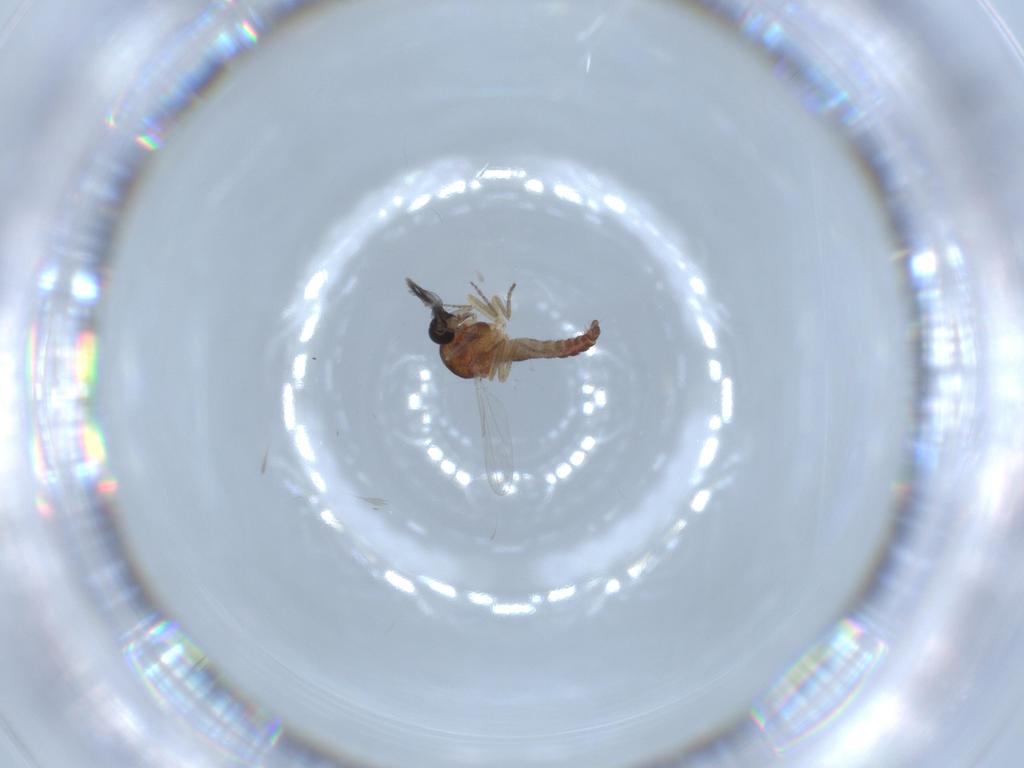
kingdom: Animalia
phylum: Arthropoda
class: Insecta
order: Diptera
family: Ceratopogonidae
